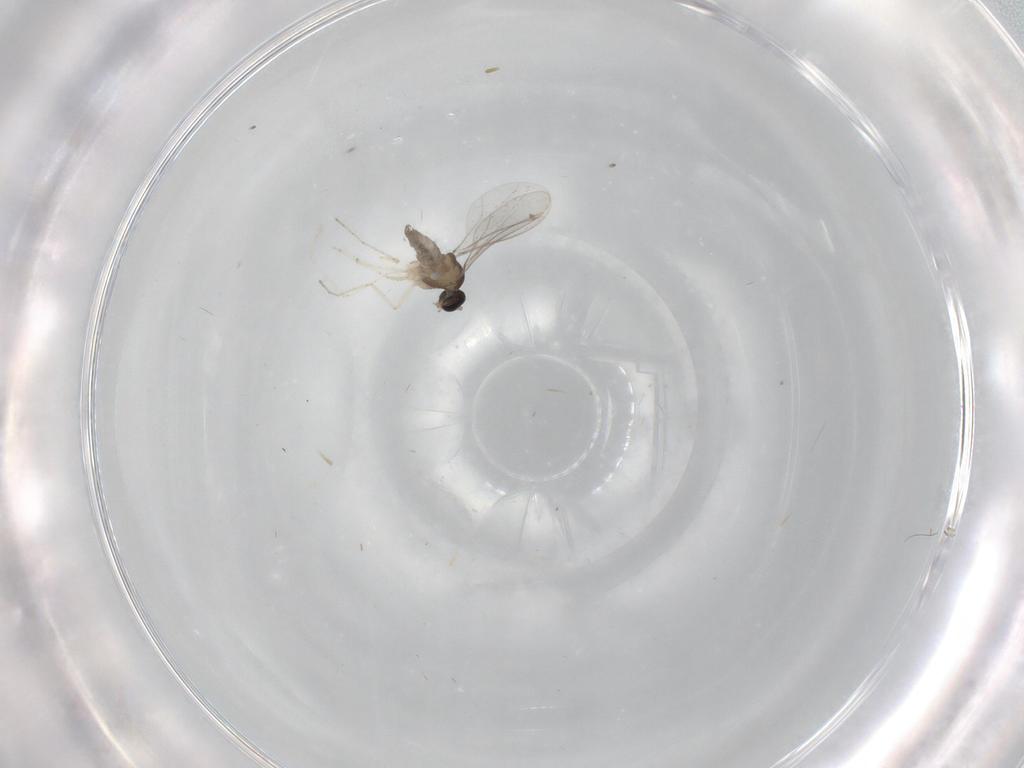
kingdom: Animalia
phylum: Arthropoda
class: Insecta
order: Diptera
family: Cecidomyiidae
